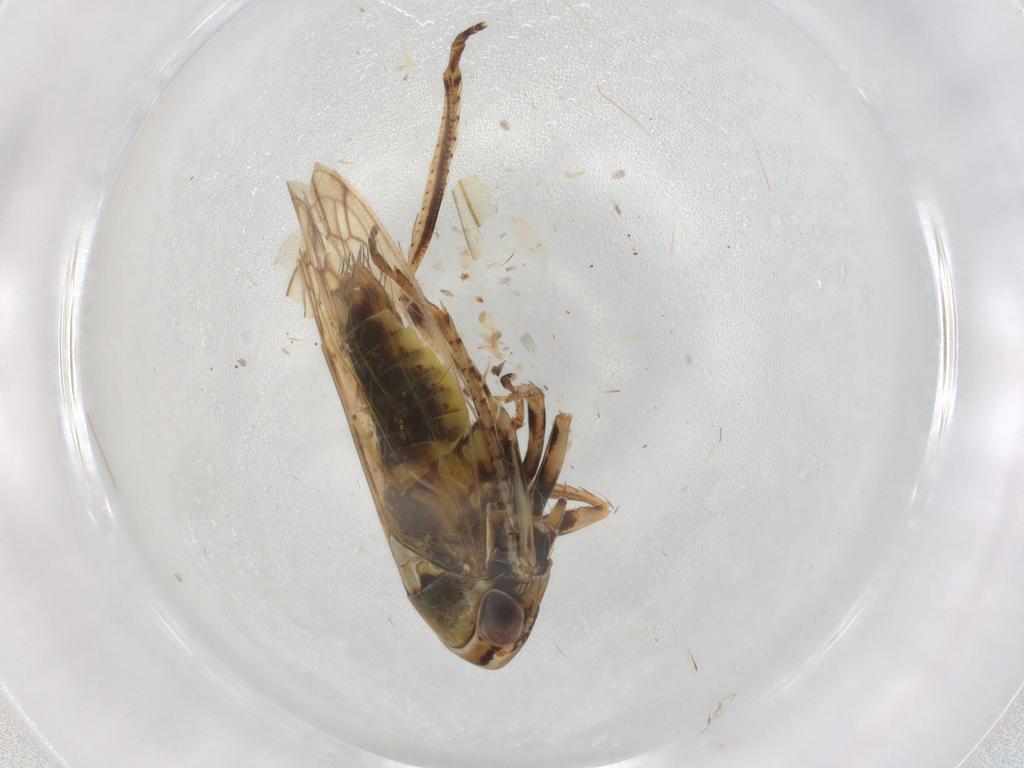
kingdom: Animalia
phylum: Arthropoda
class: Insecta
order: Hemiptera
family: Cicadellidae
